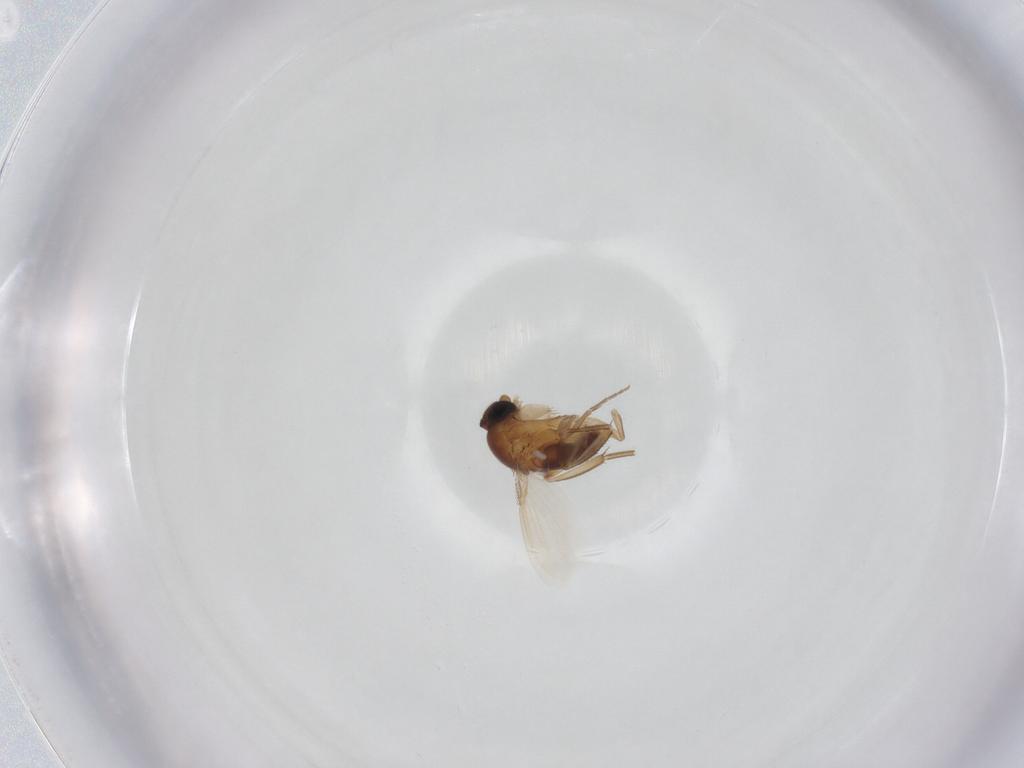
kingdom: Animalia
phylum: Arthropoda
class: Insecta
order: Diptera
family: Phoridae
